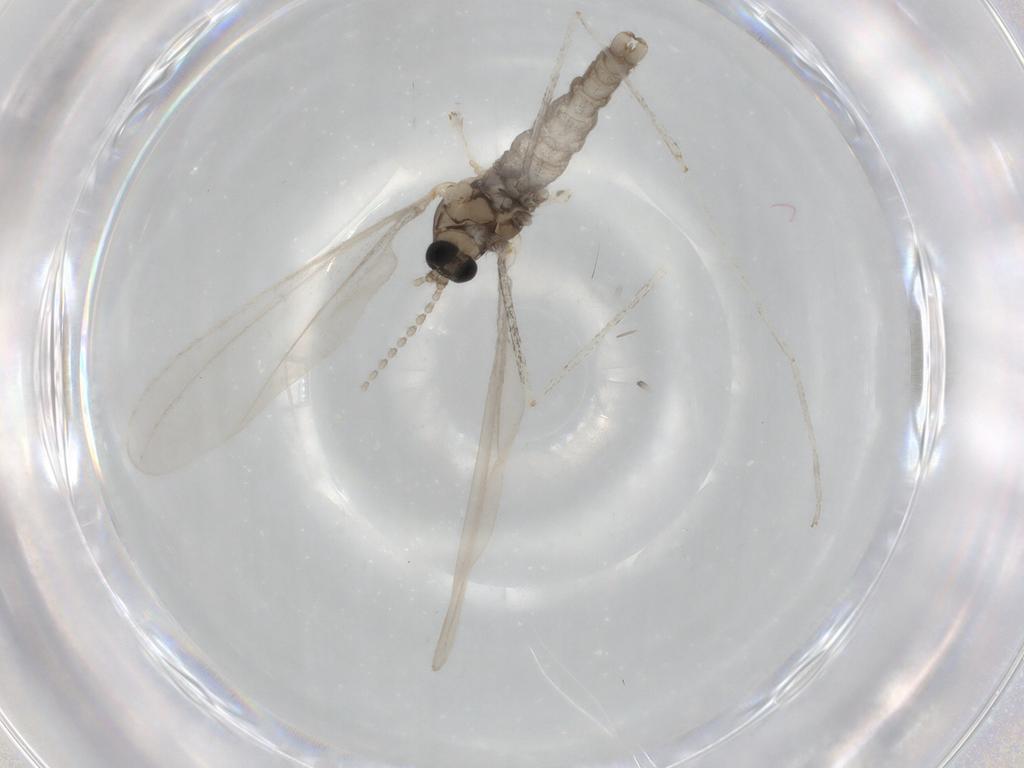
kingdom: Animalia
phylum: Arthropoda
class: Insecta
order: Diptera
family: Cecidomyiidae
